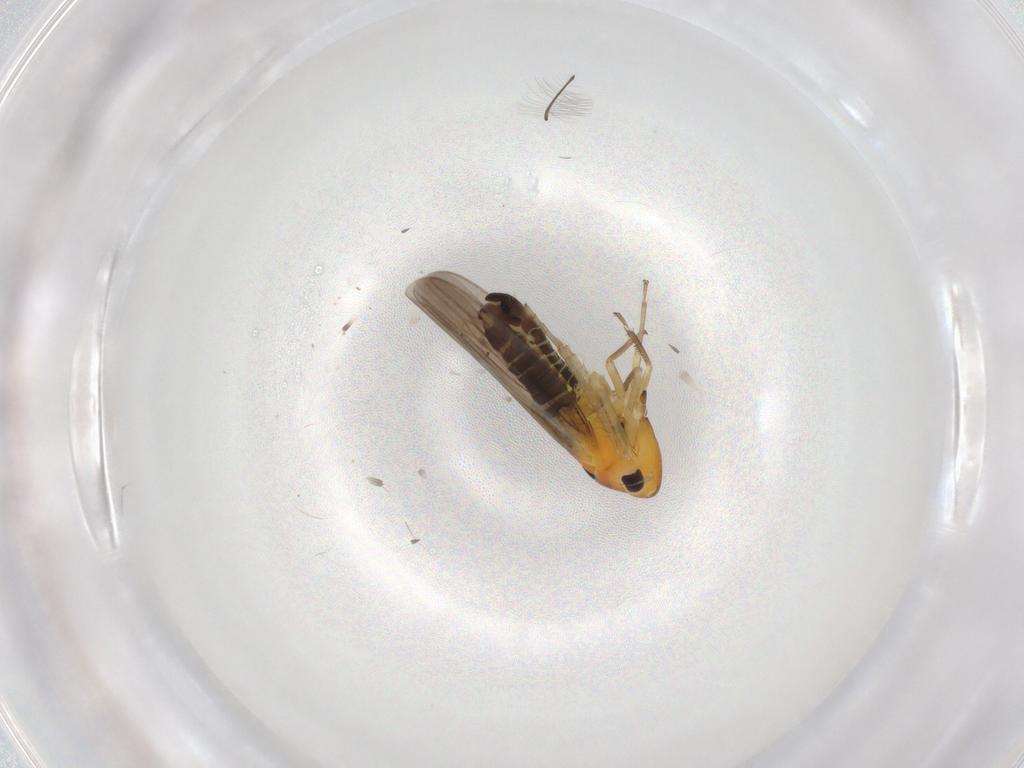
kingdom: Animalia
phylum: Arthropoda
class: Insecta
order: Hemiptera
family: Cicadellidae
